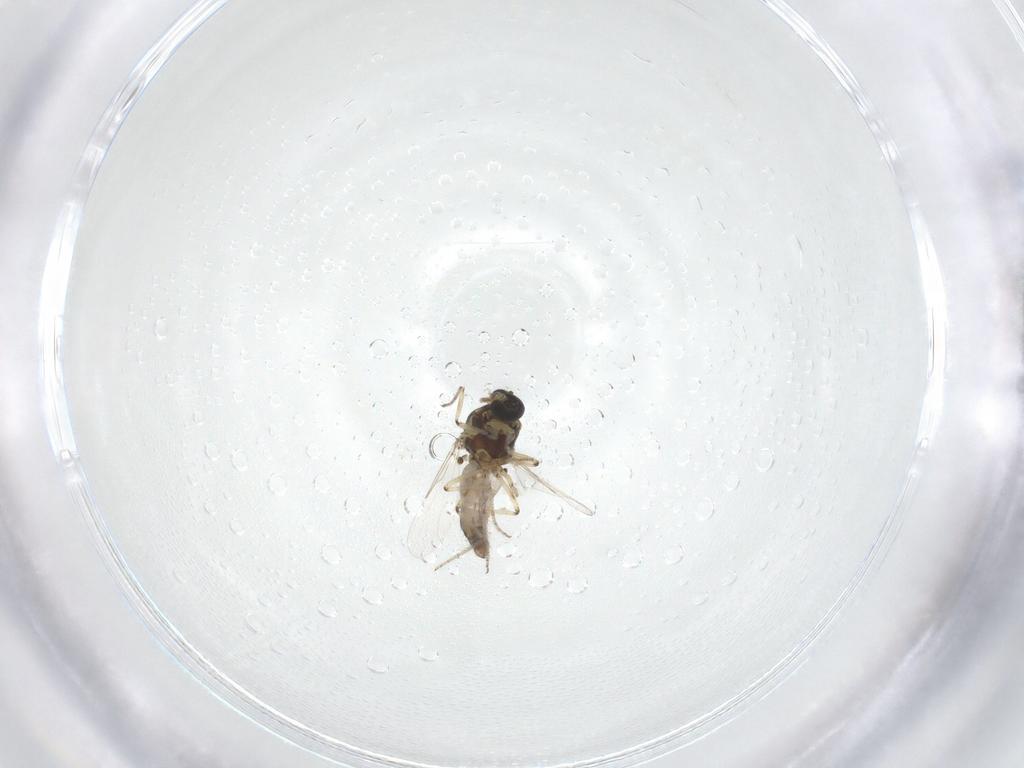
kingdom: Animalia
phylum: Arthropoda
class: Insecta
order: Diptera
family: Ceratopogonidae
